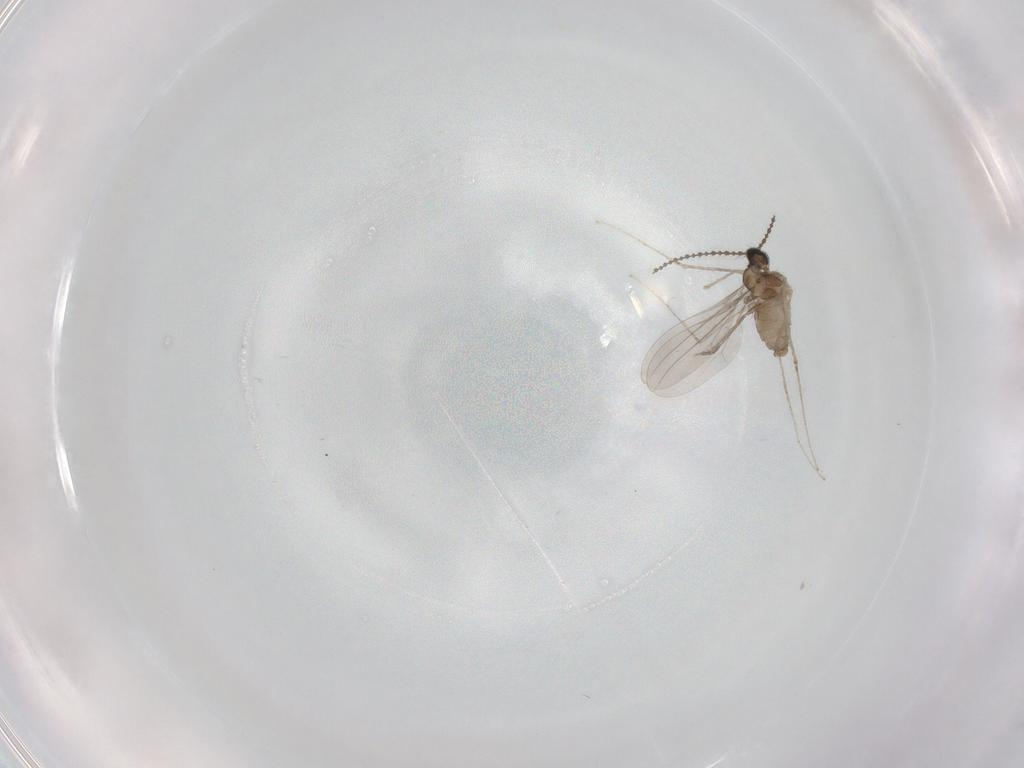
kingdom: Animalia
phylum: Arthropoda
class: Insecta
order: Diptera
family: Cecidomyiidae
